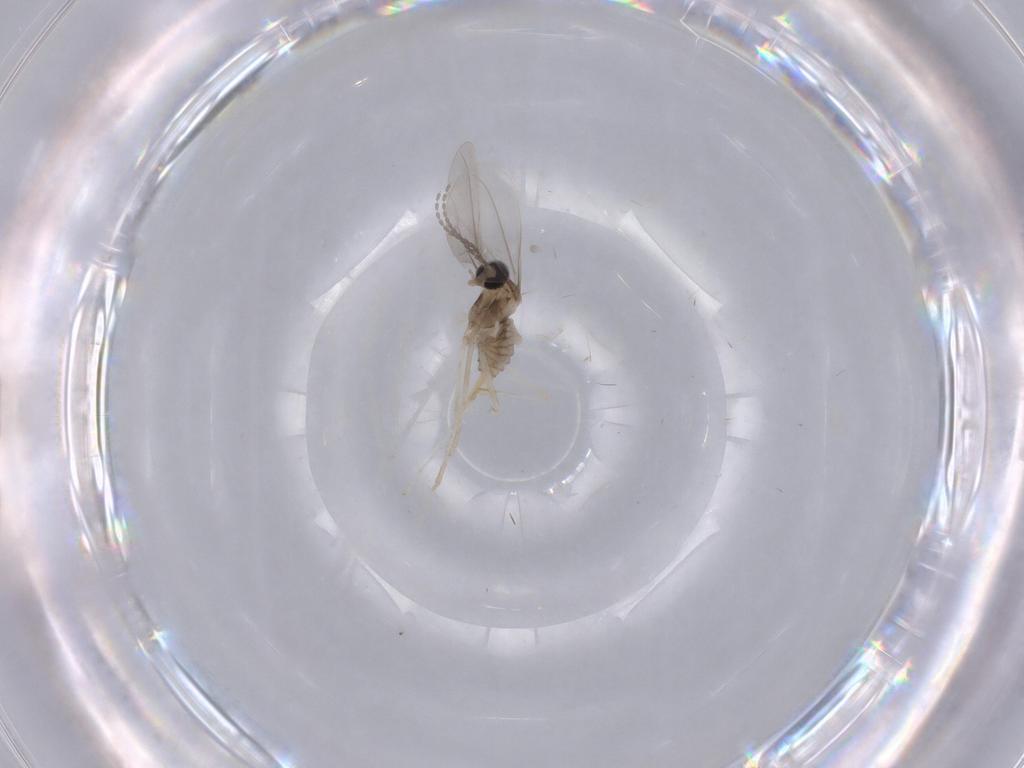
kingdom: Animalia
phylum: Arthropoda
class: Insecta
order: Diptera
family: Cecidomyiidae
